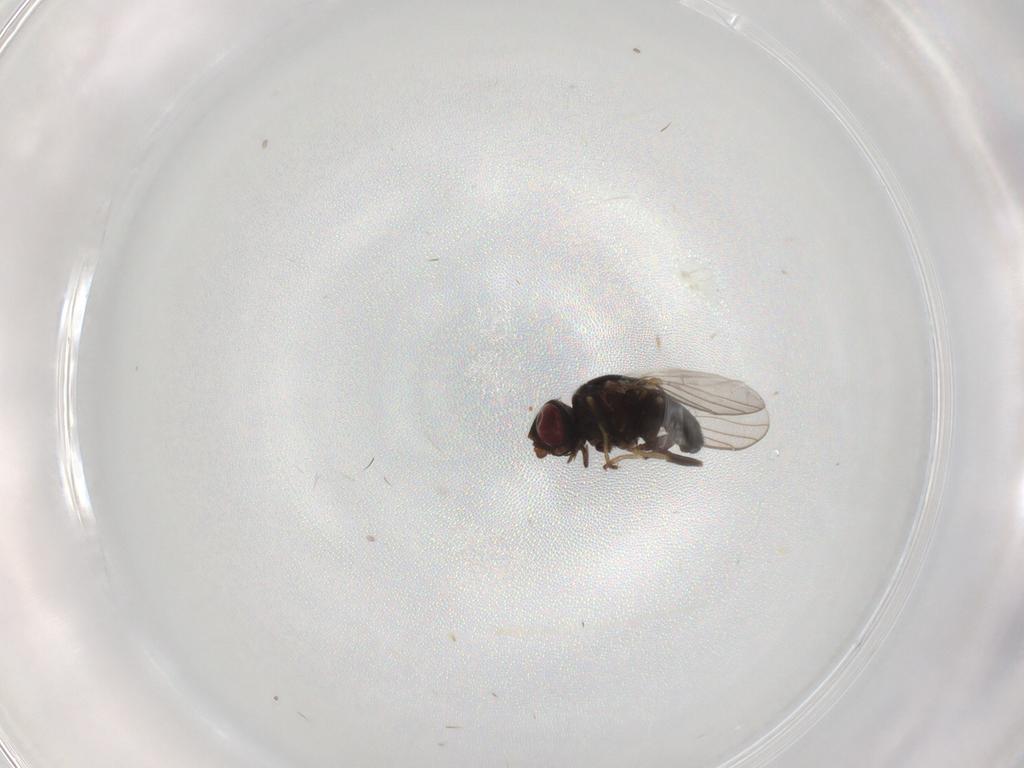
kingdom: Animalia
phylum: Arthropoda
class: Insecta
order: Diptera
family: Chloropidae
